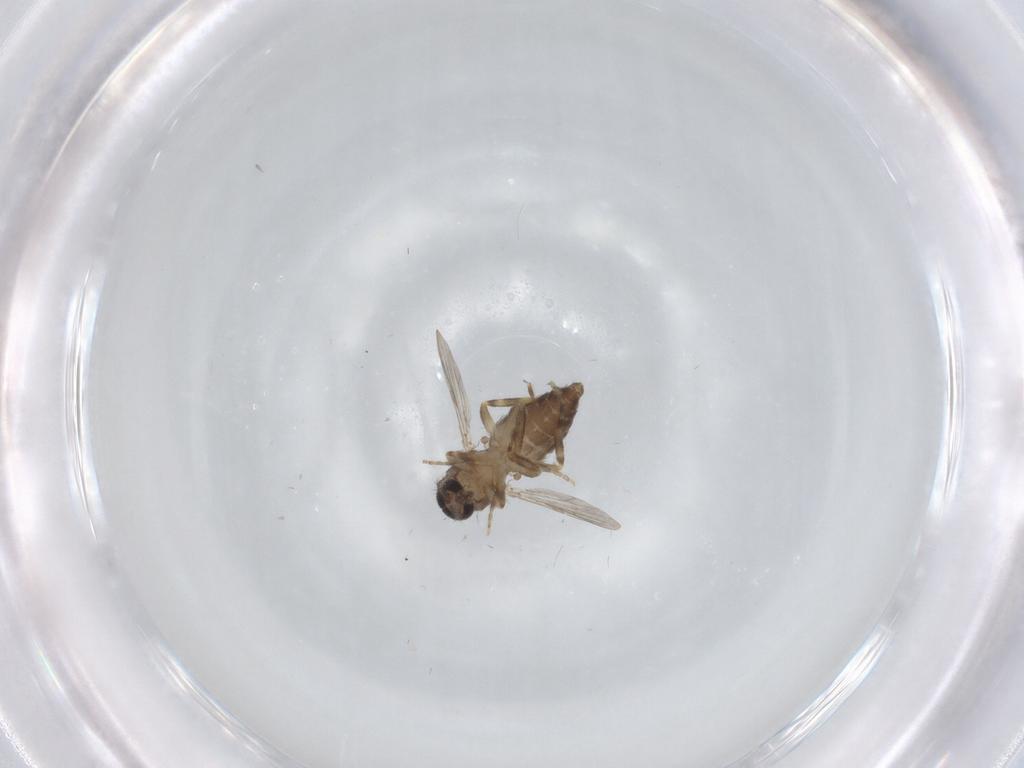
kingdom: Animalia
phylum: Arthropoda
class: Insecta
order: Diptera
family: Ceratopogonidae
